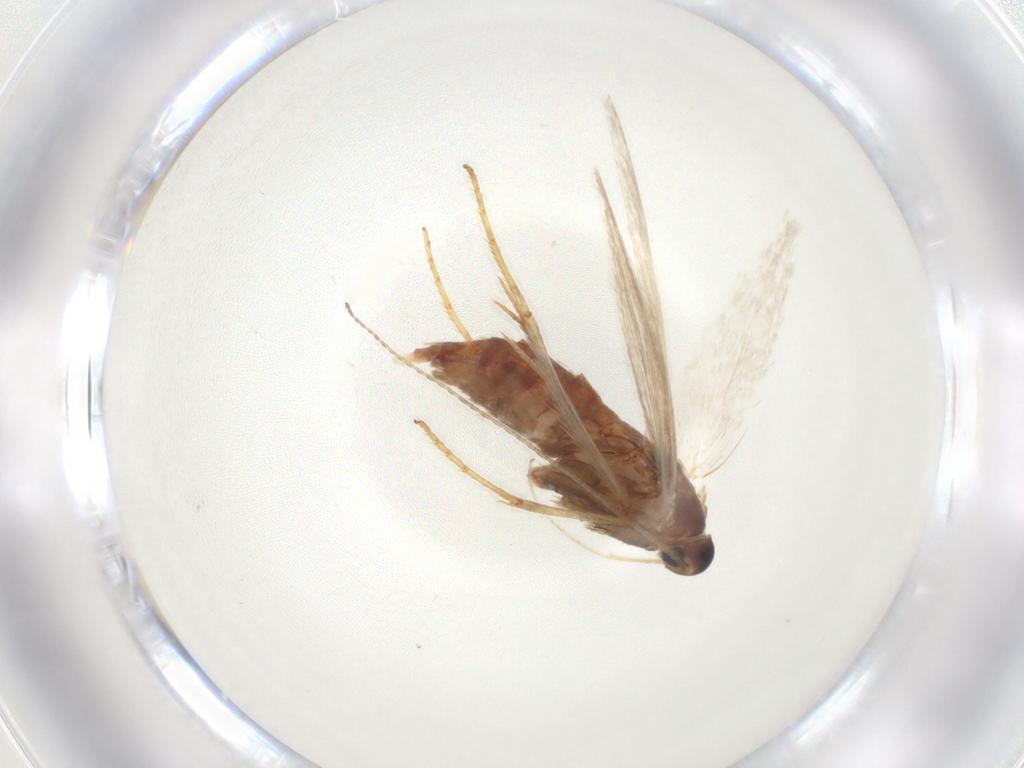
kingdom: Animalia
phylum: Arthropoda
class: Insecta
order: Lepidoptera
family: Erebidae
